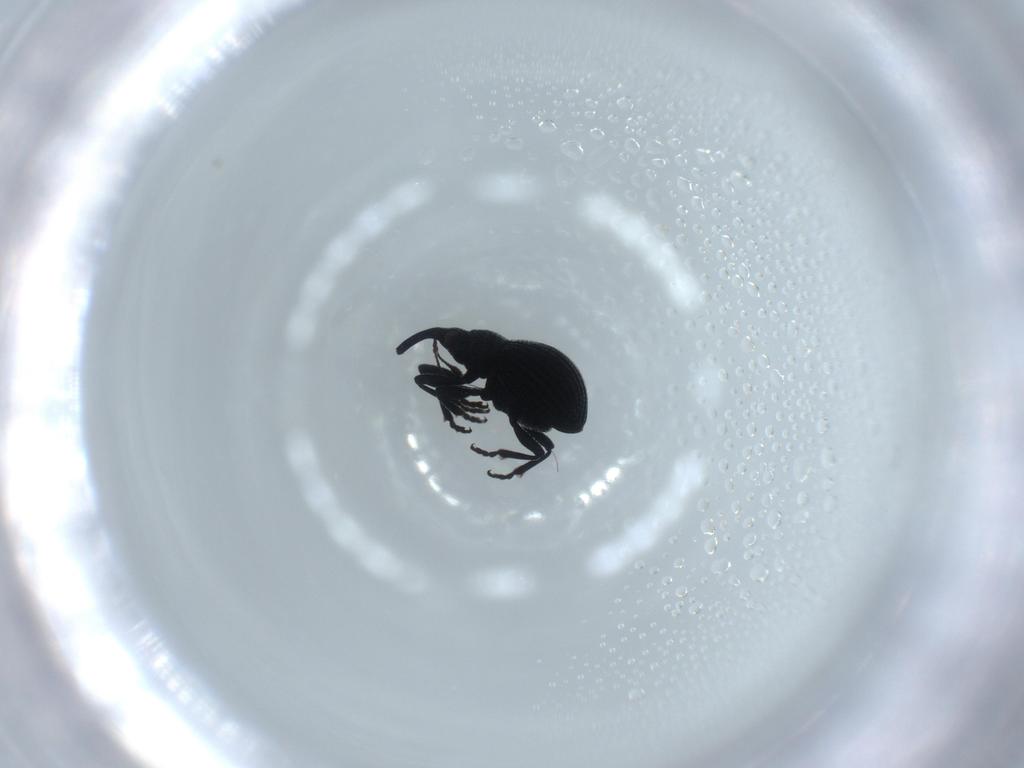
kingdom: Animalia
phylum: Arthropoda
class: Insecta
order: Coleoptera
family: Brentidae
